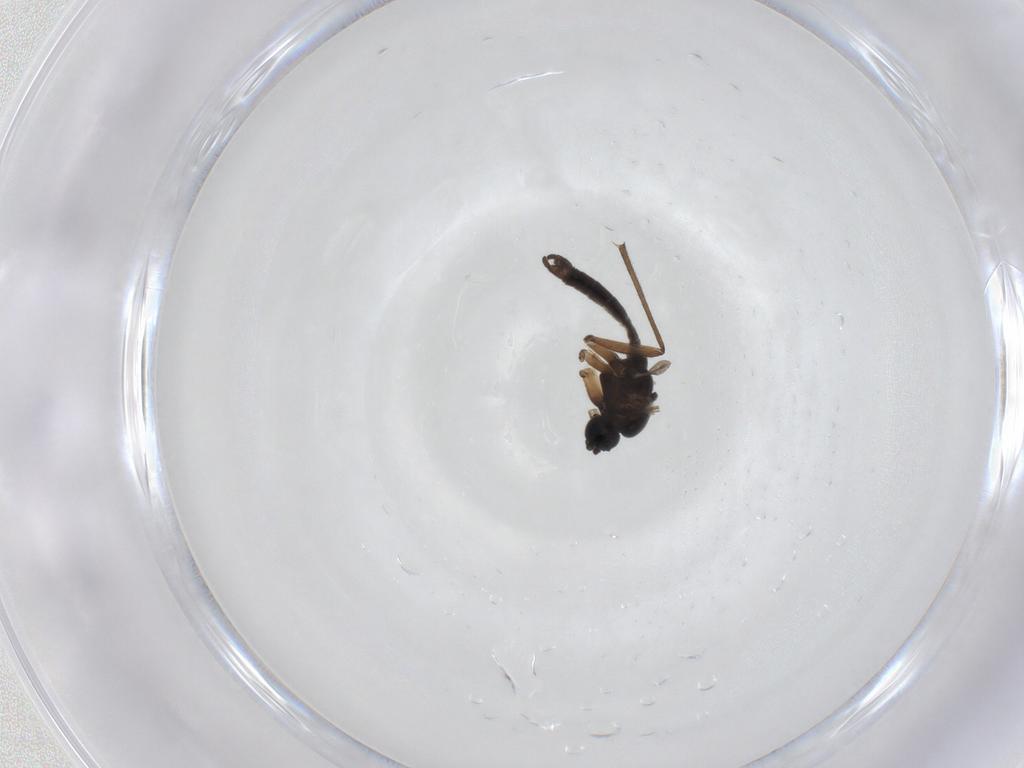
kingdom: Animalia
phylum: Arthropoda
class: Insecta
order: Diptera
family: Sciaridae
